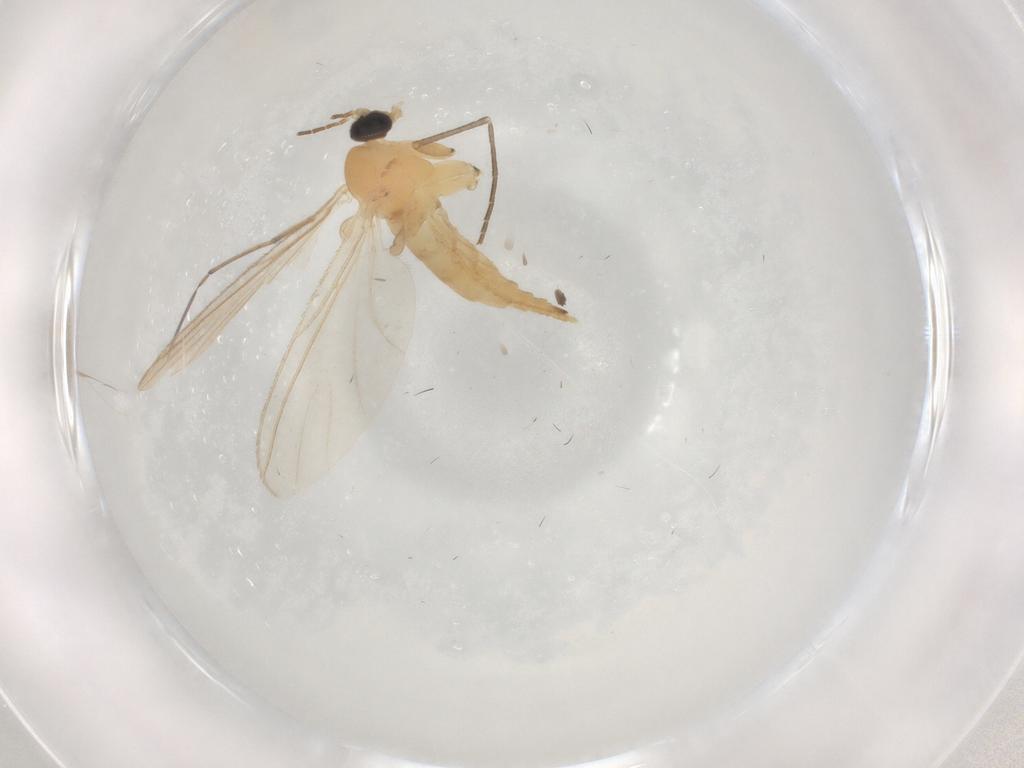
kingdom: Animalia
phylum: Arthropoda
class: Insecta
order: Diptera
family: Sciaridae
